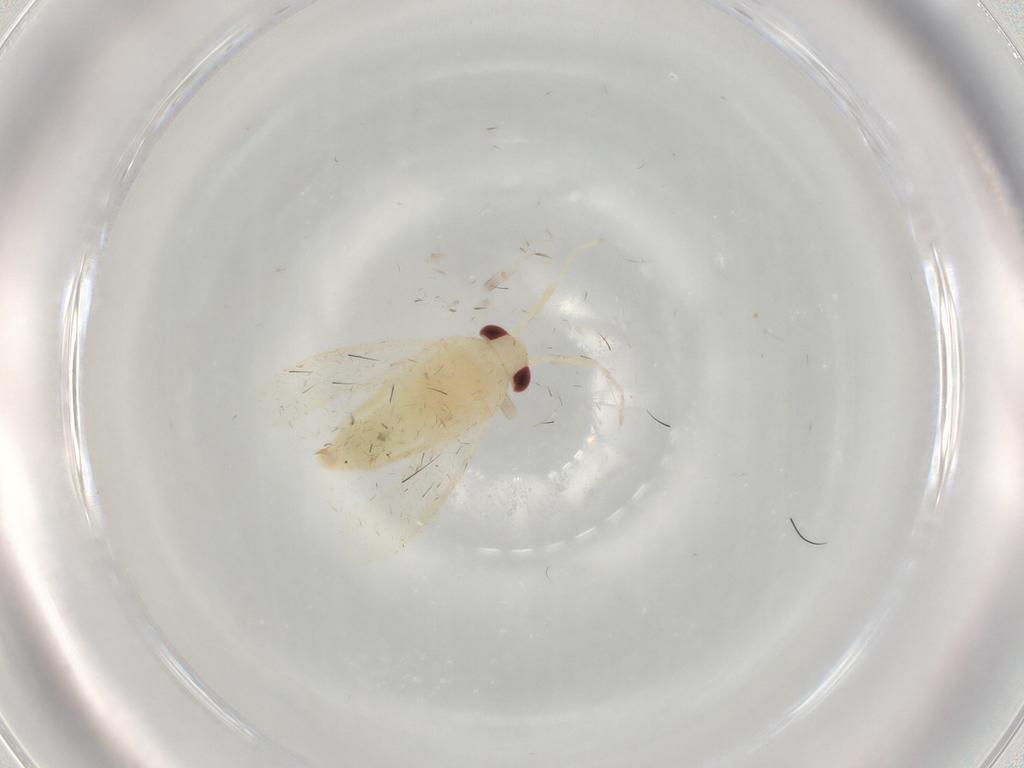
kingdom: Animalia
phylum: Arthropoda
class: Insecta
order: Hemiptera
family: Miridae
